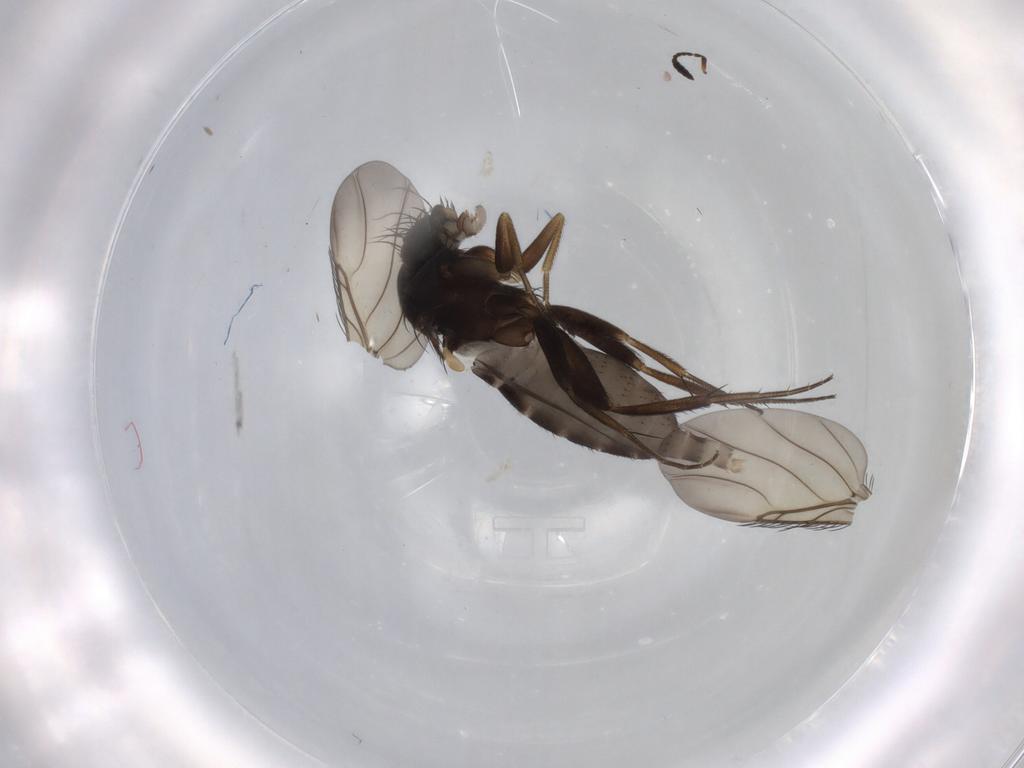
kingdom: Animalia
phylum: Arthropoda
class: Insecta
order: Diptera
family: Phoridae
